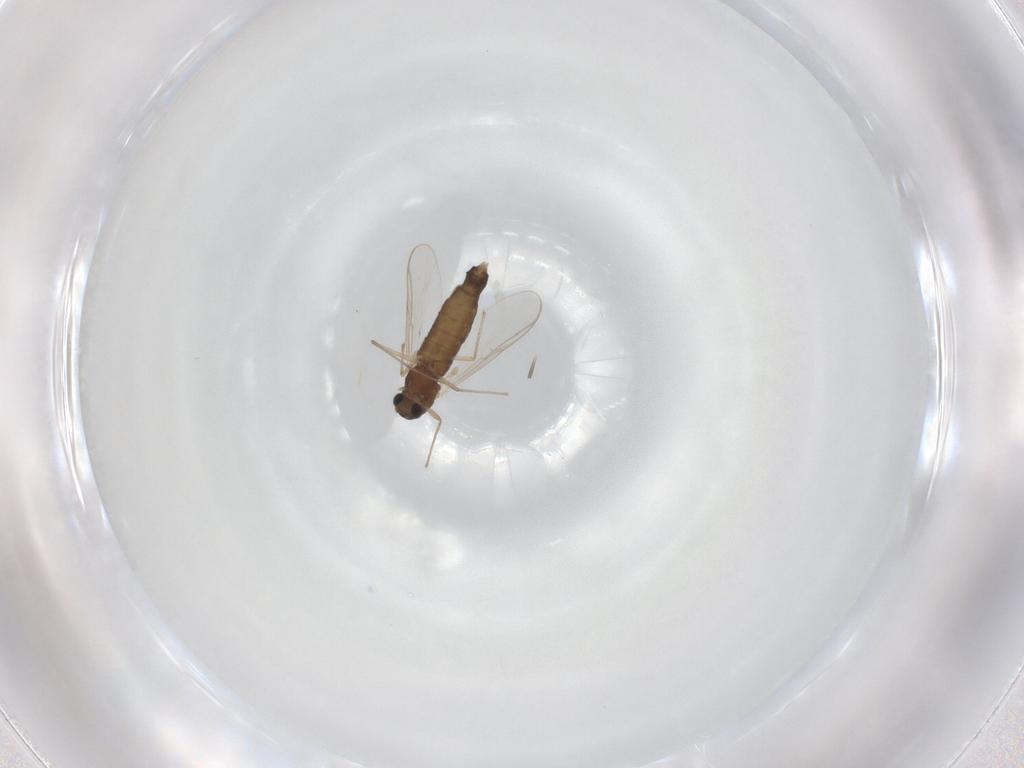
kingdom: Animalia
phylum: Arthropoda
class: Insecta
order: Diptera
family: Chironomidae
